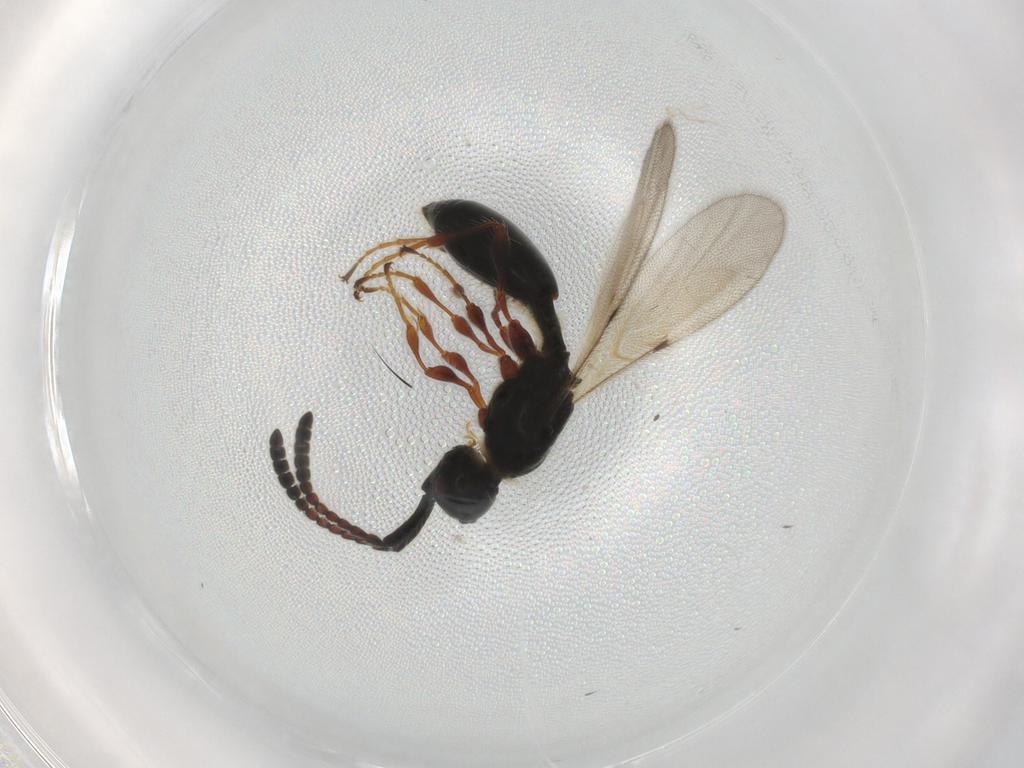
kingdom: Animalia
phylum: Arthropoda
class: Insecta
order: Hymenoptera
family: Diapriidae
